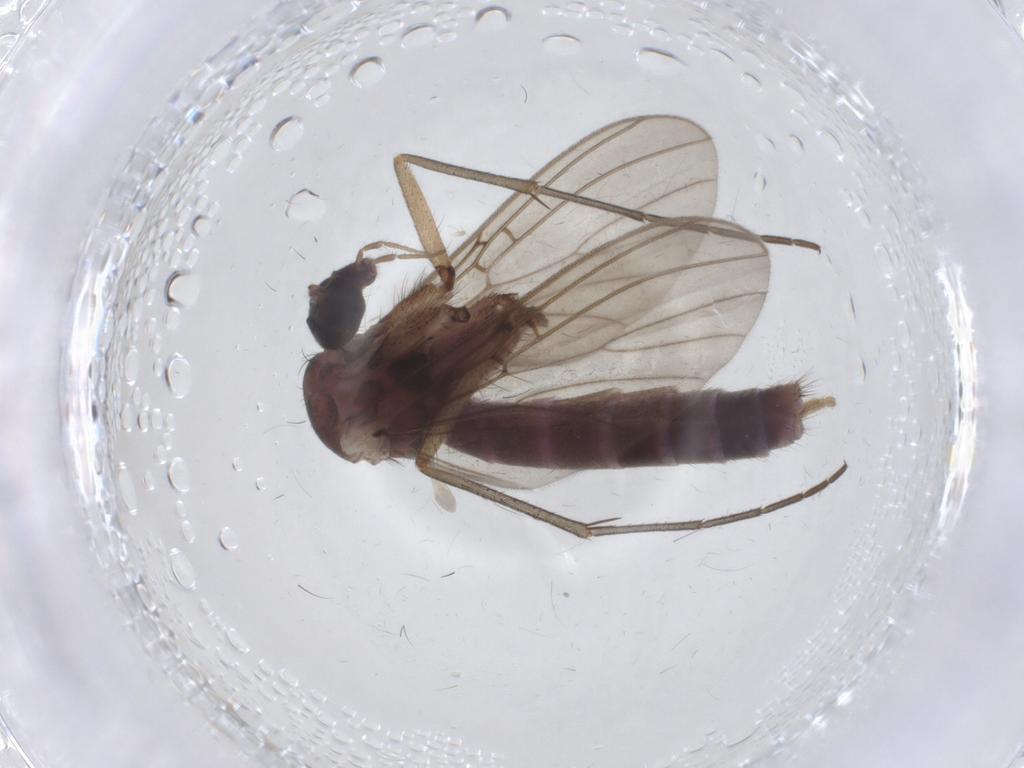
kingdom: Animalia
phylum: Arthropoda
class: Insecta
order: Diptera
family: Mycetophilidae
